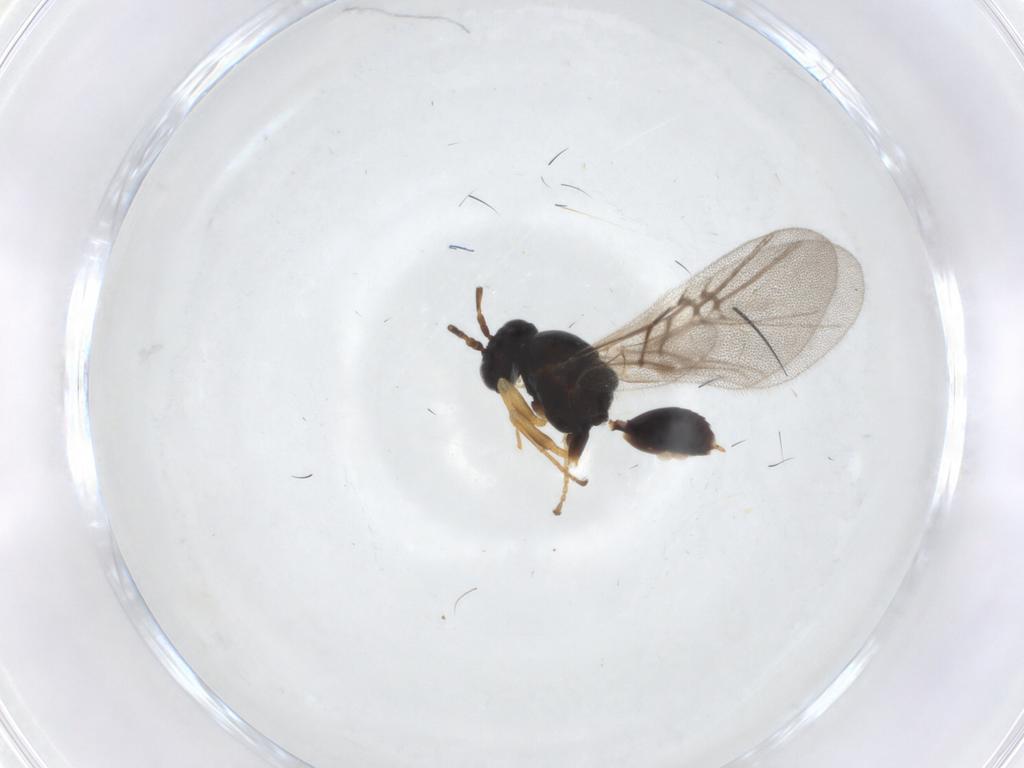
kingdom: Animalia
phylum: Arthropoda
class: Insecta
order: Hymenoptera
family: Cynipidae
